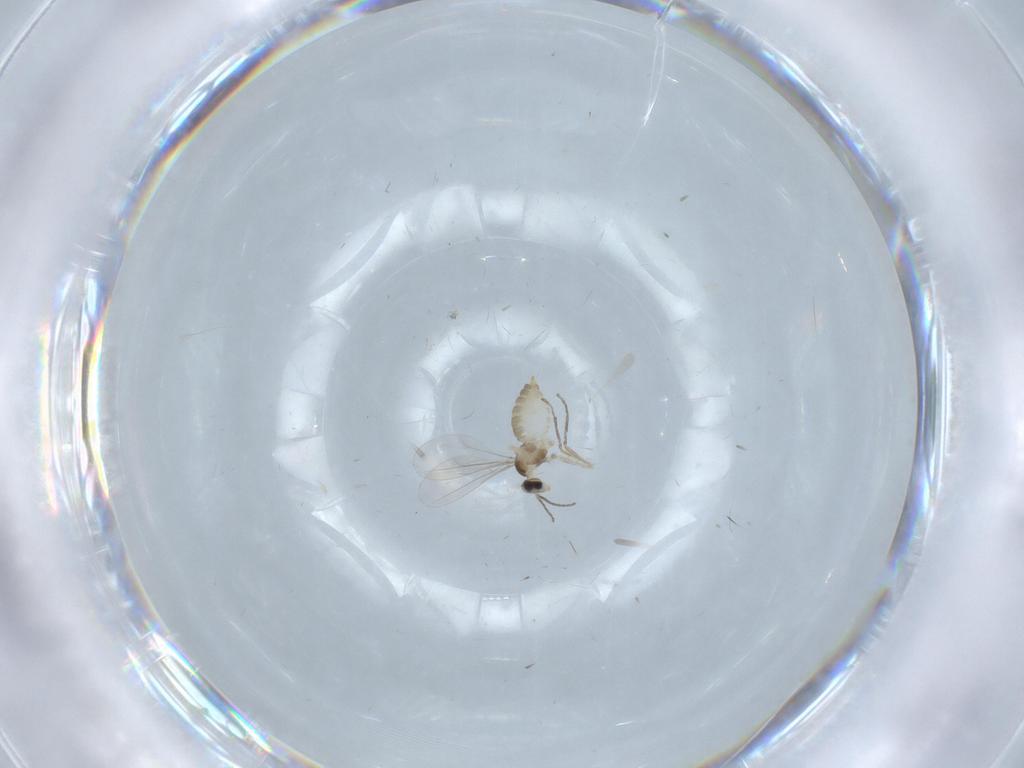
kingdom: Animalia
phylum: Arthropoda
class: Insecta
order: Diptera
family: Cecidomyiidae
